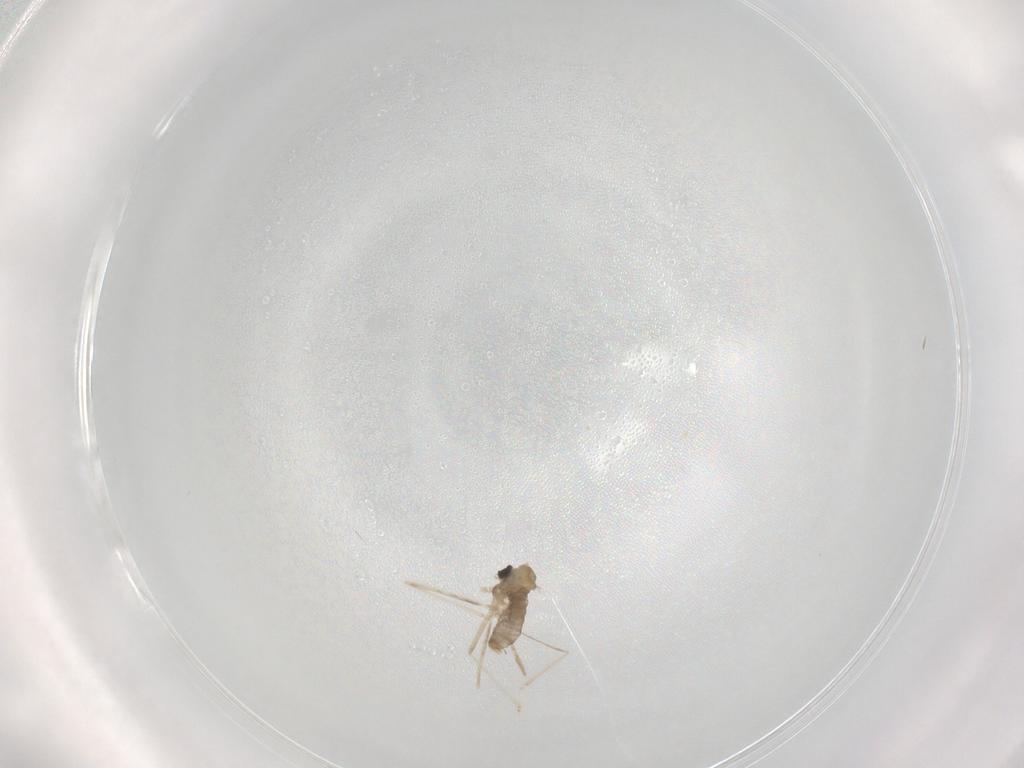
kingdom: Animalia
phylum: Arthropoda
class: Insecta
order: Diptera
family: Cecidomyiidae
